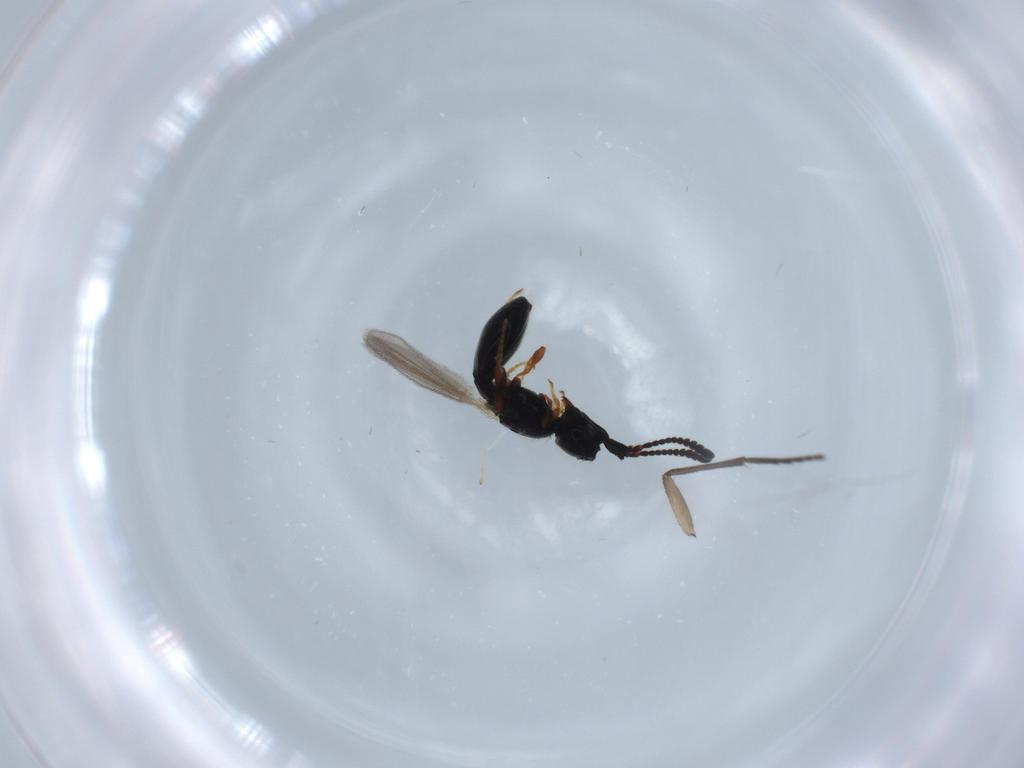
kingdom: Animalia
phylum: Arthropoda
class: Insecta
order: Hymenoptera
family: Diapriidae
